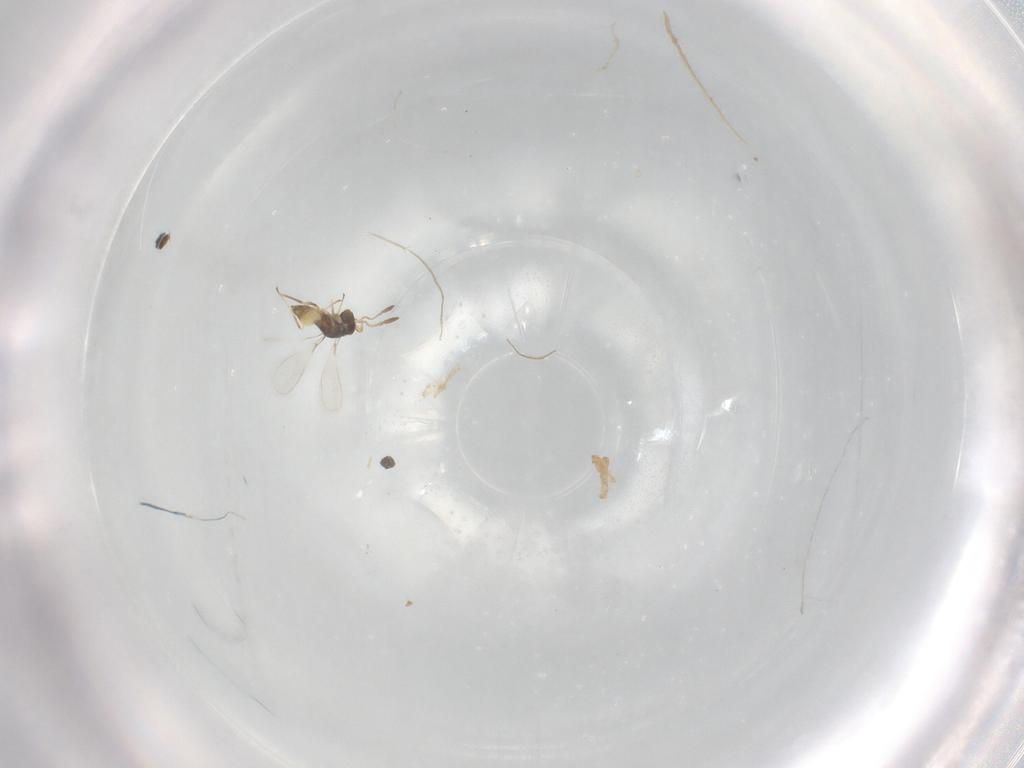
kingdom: Animalia
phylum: Arthropoda
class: Insecta
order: Hymenoptera
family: Mymaridae
